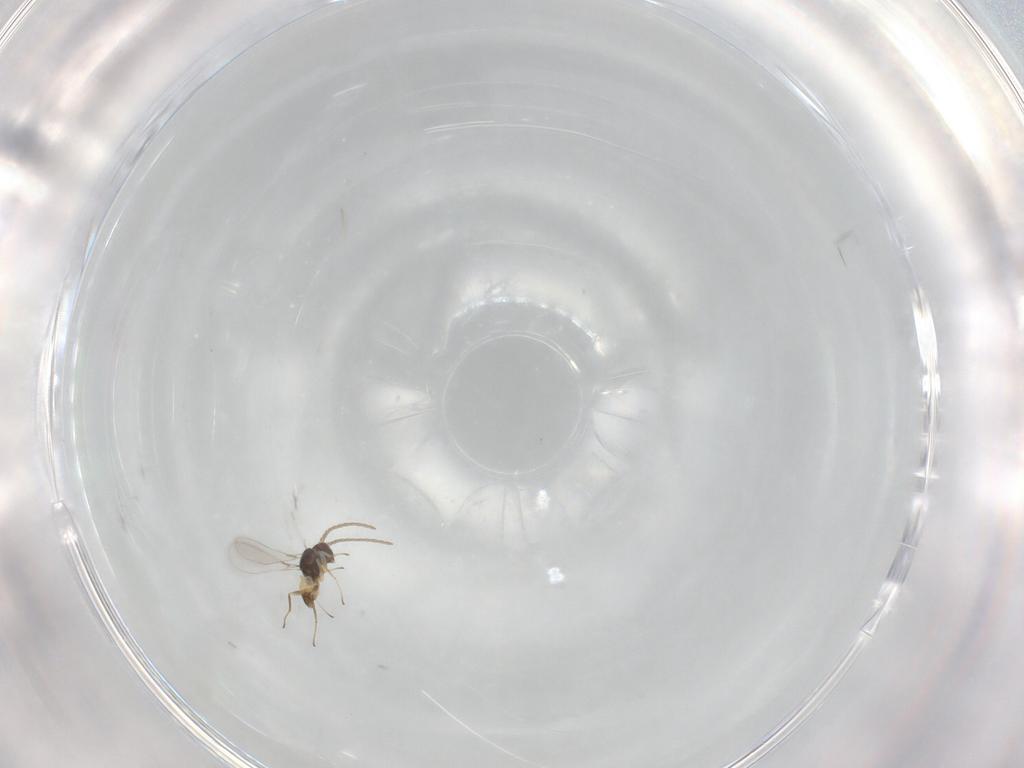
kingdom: Animalia
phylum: Arthropoda
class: Insecta
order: Hymenoptera
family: Mymaridae
